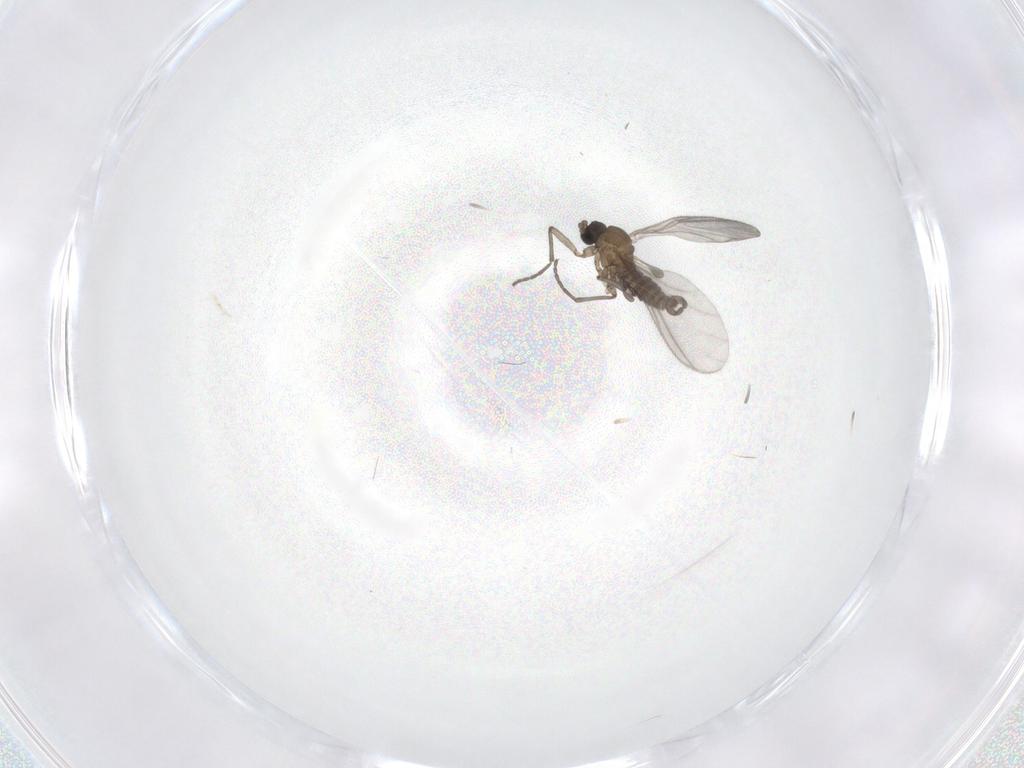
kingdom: Animalia
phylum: Arthropoda
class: Insecta
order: Diptera
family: Sciaridae
